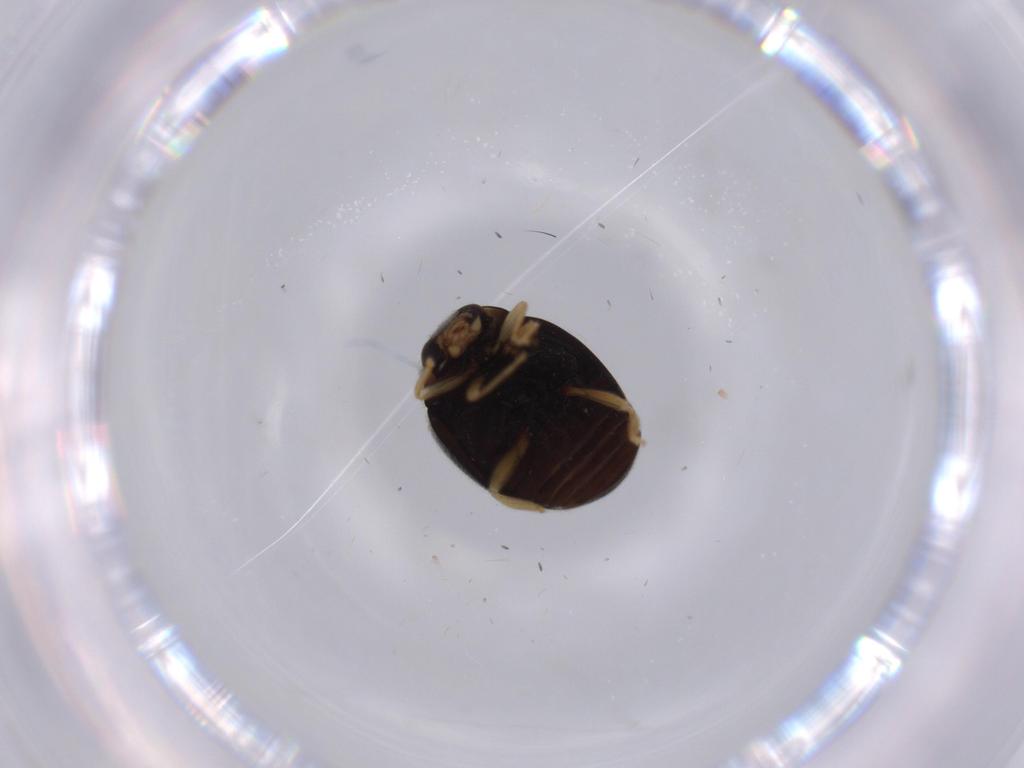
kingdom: Animalia
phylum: Arthropoda
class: Insecta
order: Coleoptera
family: Coccinellidae
